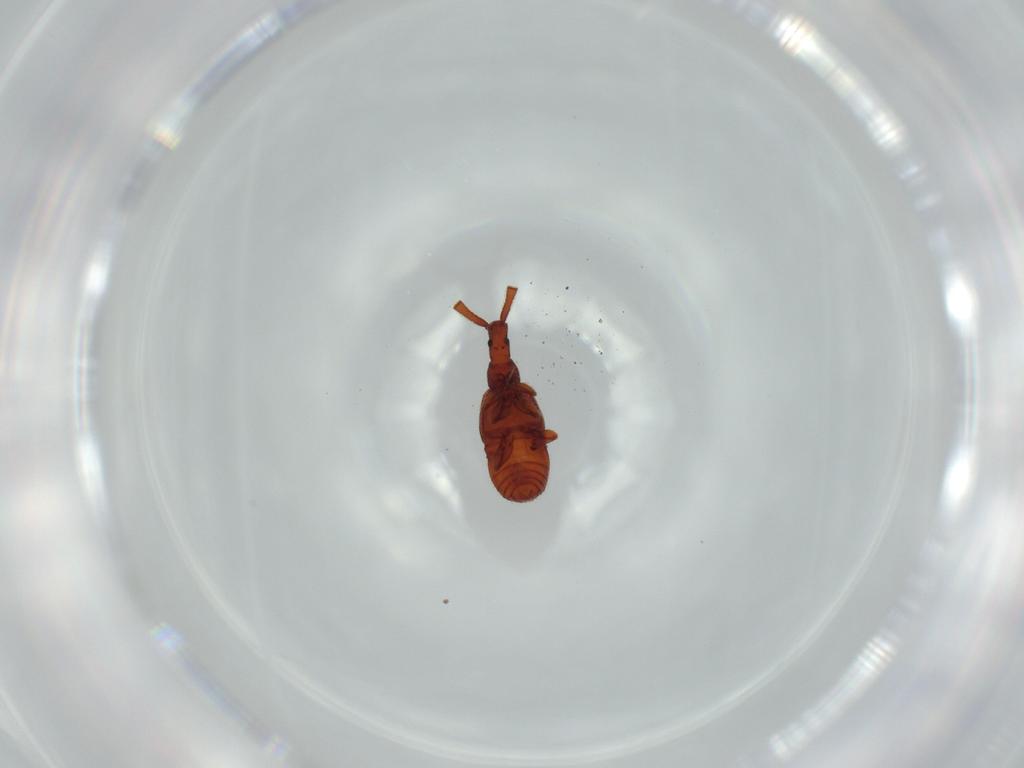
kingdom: Animalia
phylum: Arthropoda
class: Insecta
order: Coleoptera
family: Staphylinidae
